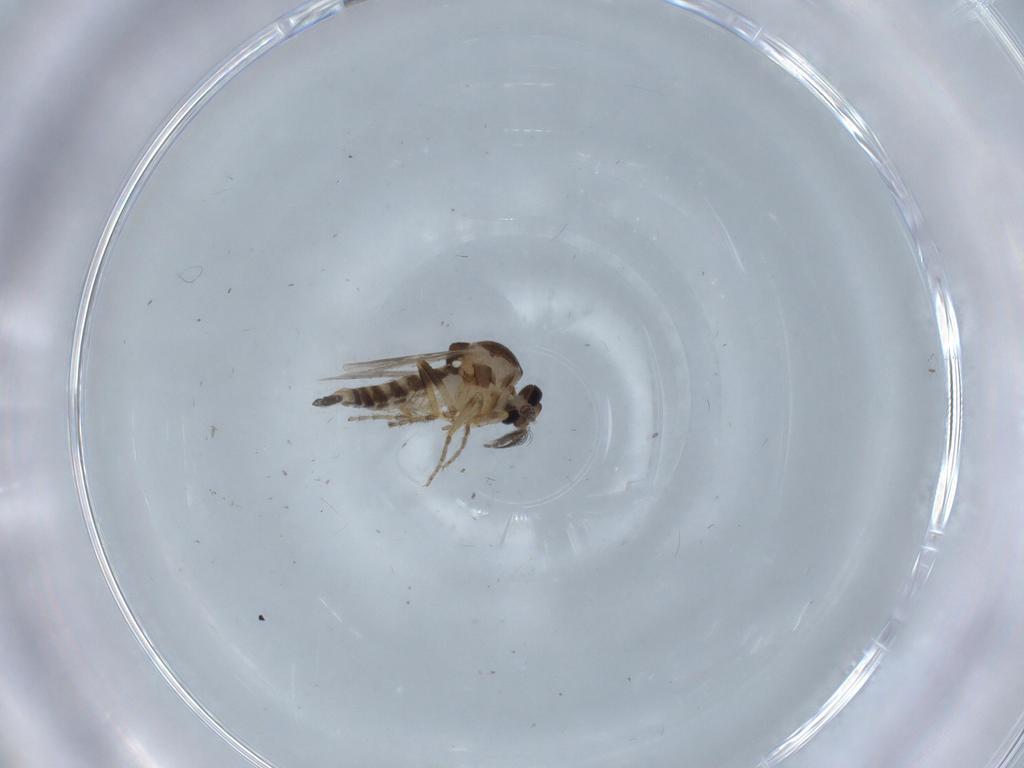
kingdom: Animalia
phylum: Arthropoda
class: Insecta
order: Diptera
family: Ceratopogonidae
